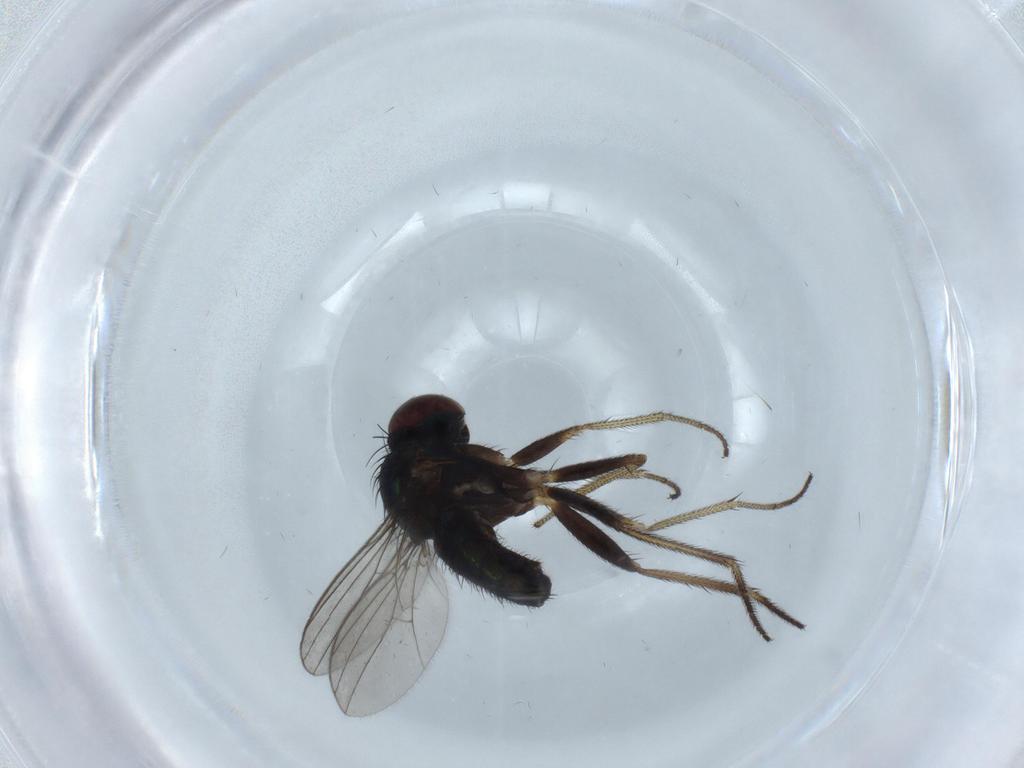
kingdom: Animalia
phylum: Arthropoda
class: Insecta
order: Diptera
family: Dolichopodidae
